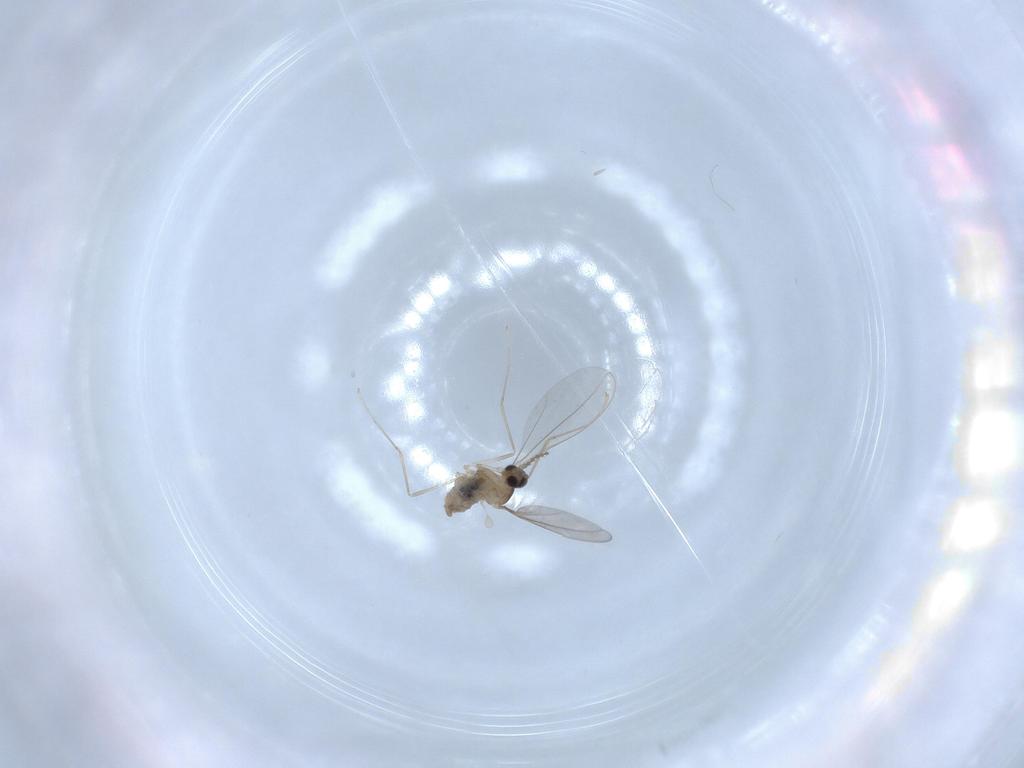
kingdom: Animalia
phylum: Arthropoda
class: Insecta
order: Diptera
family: Cecidomyiidae
